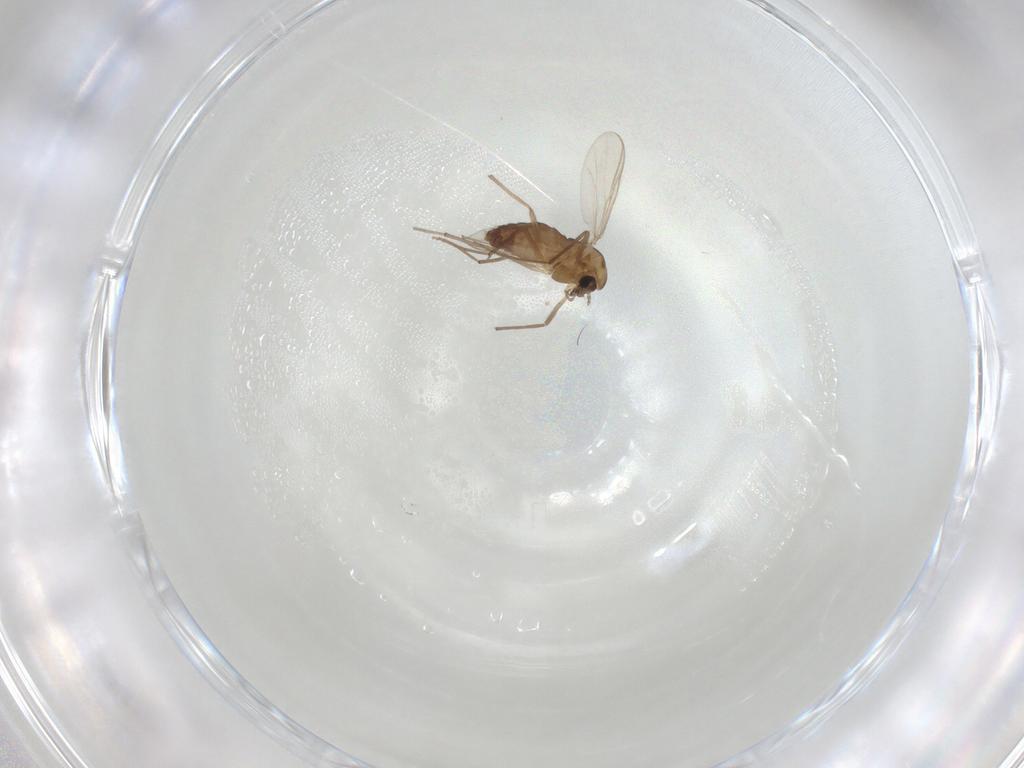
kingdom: Animalia
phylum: Arthropoda
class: Insecta
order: Diptera
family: Chironomidae
